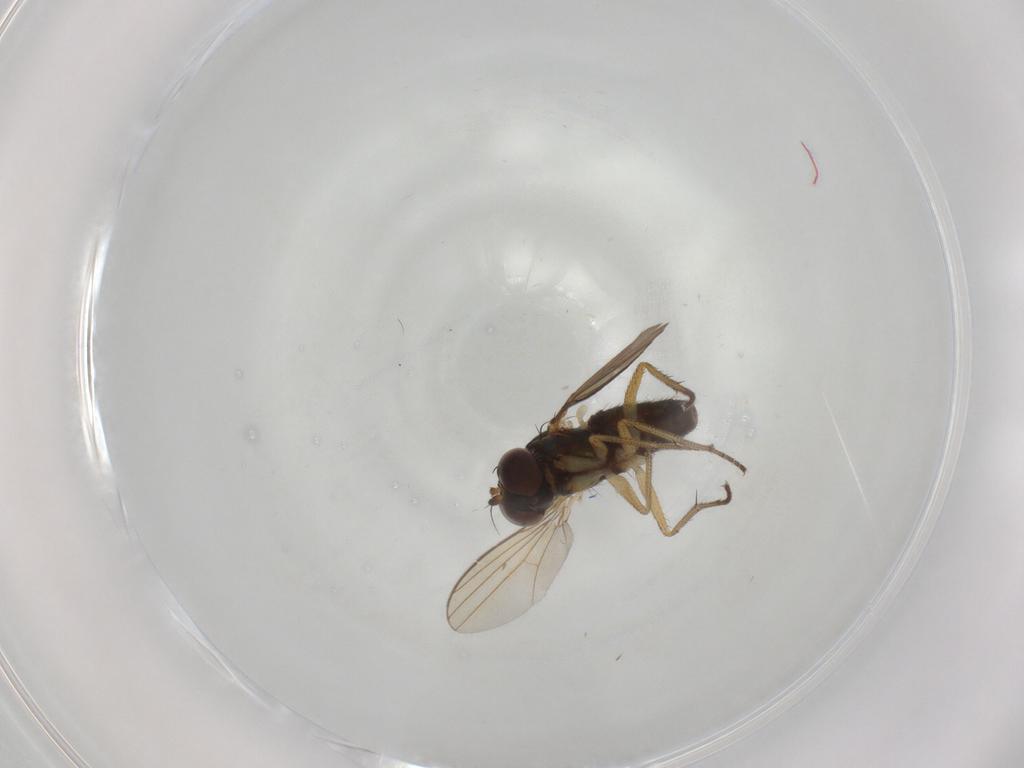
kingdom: Animalia
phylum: Arthropoda
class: Insecta
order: Diptera
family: Dolichopodidae
